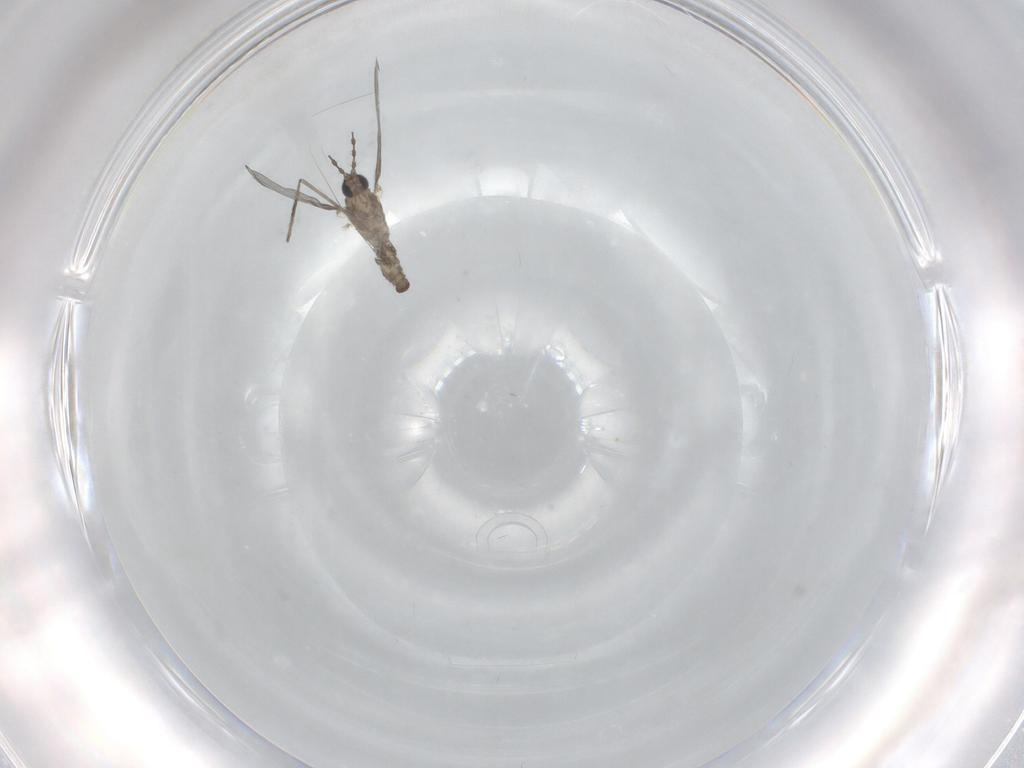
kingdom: Animalia
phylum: Arthropoda
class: Insecta
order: Diptera
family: Cecidomyiidae
